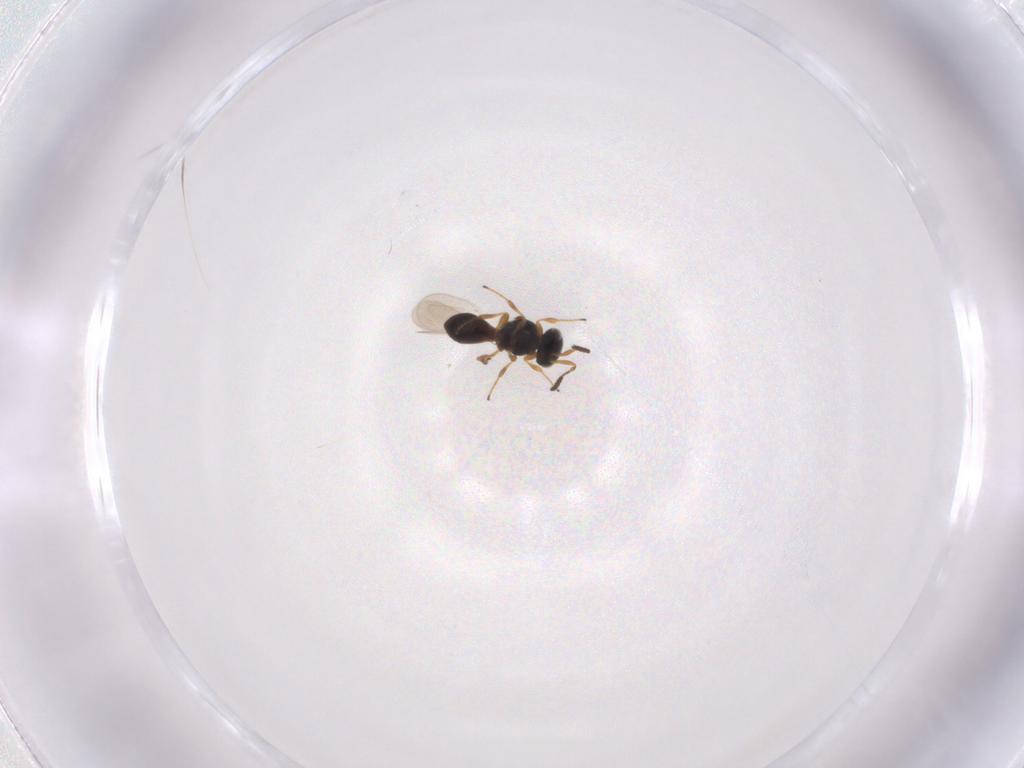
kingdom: Animalia
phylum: Arthropoda
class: Insecta
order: Hymenoptera
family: Platygastridae
